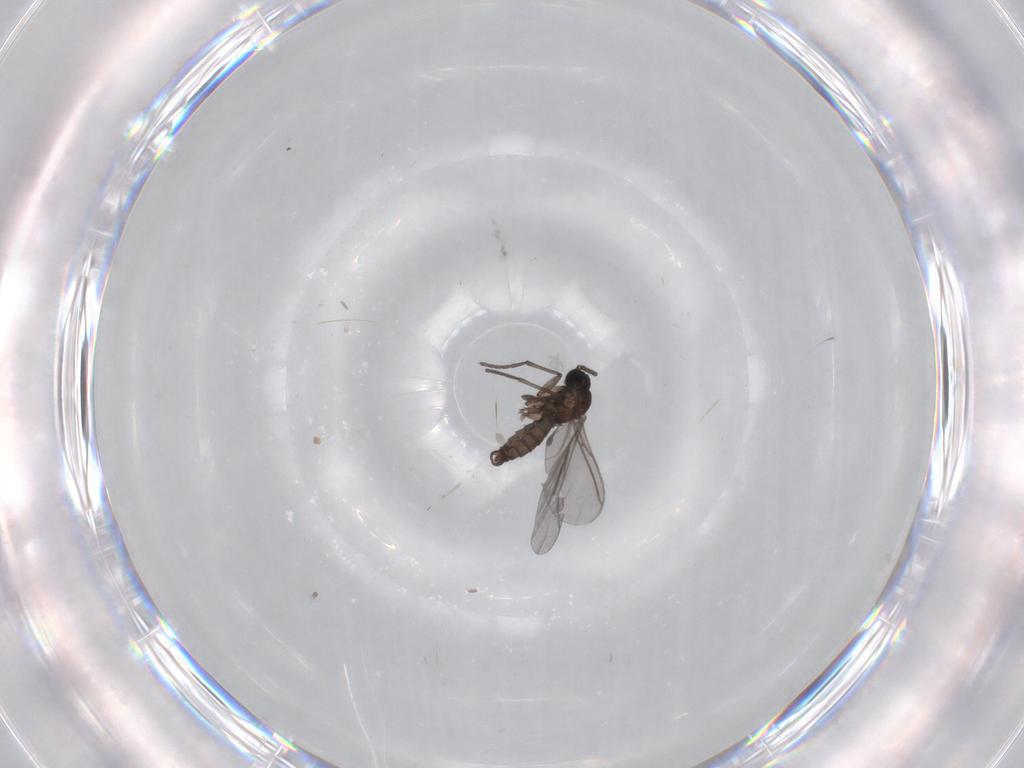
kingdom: Animalia
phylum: Arthropoda
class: Insecta
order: Diptera
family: Sciaridae
